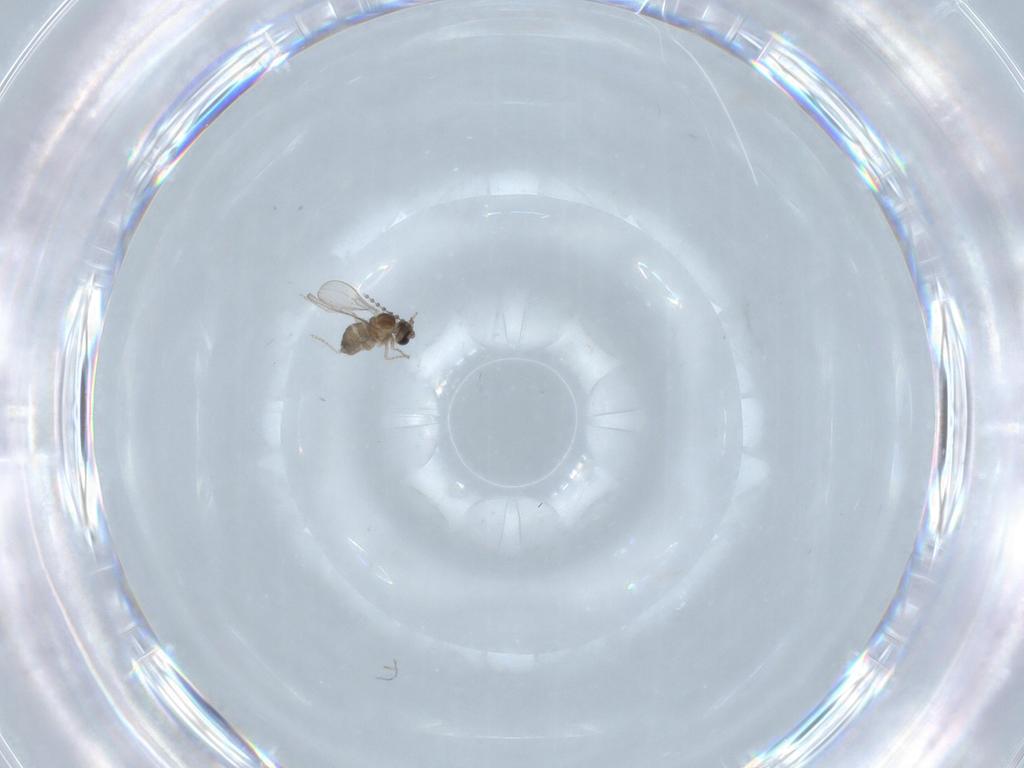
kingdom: Animalia
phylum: Arthropoda
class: Insecta
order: Diptera
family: Cecidomyiidae
